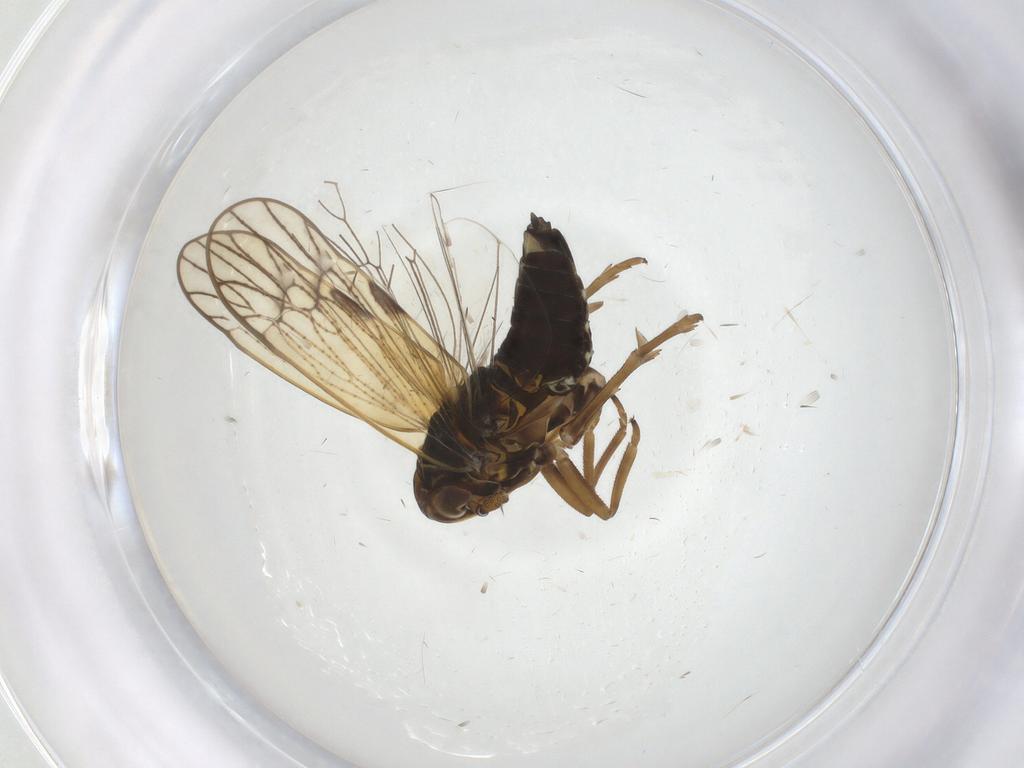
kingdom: Animalia
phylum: Arthropoda
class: Insecta
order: Hemiptera
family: Delphacidae
